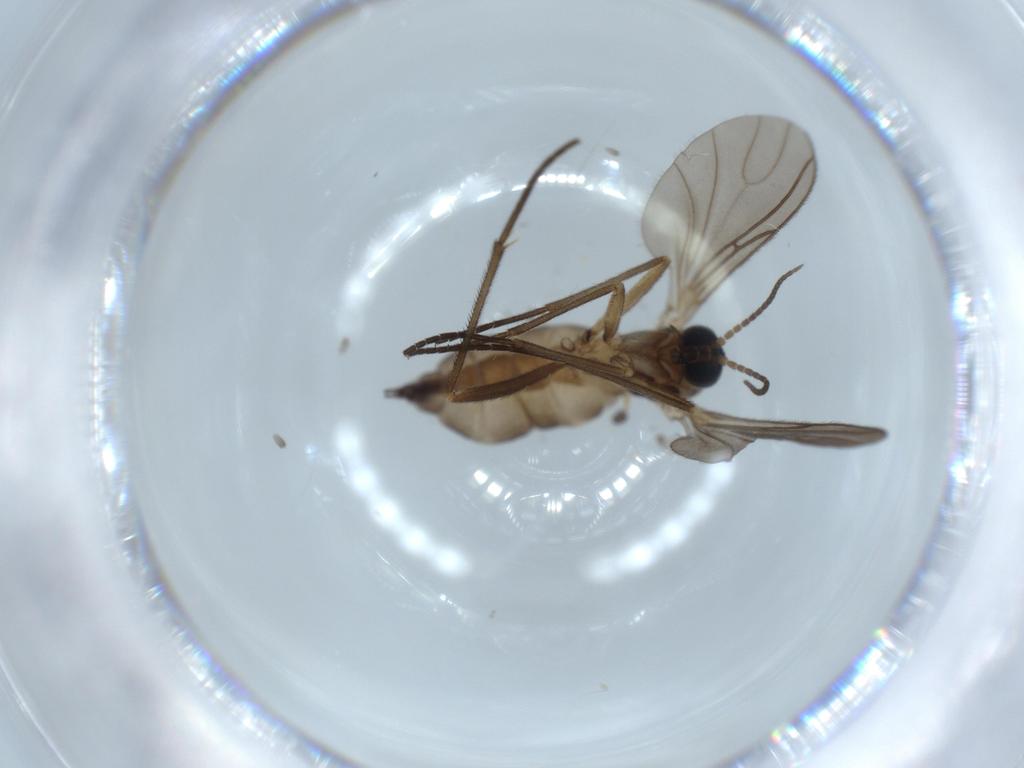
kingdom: Animalia
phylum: Arthropoda
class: Insecta
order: Diptera
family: Sciaridae
